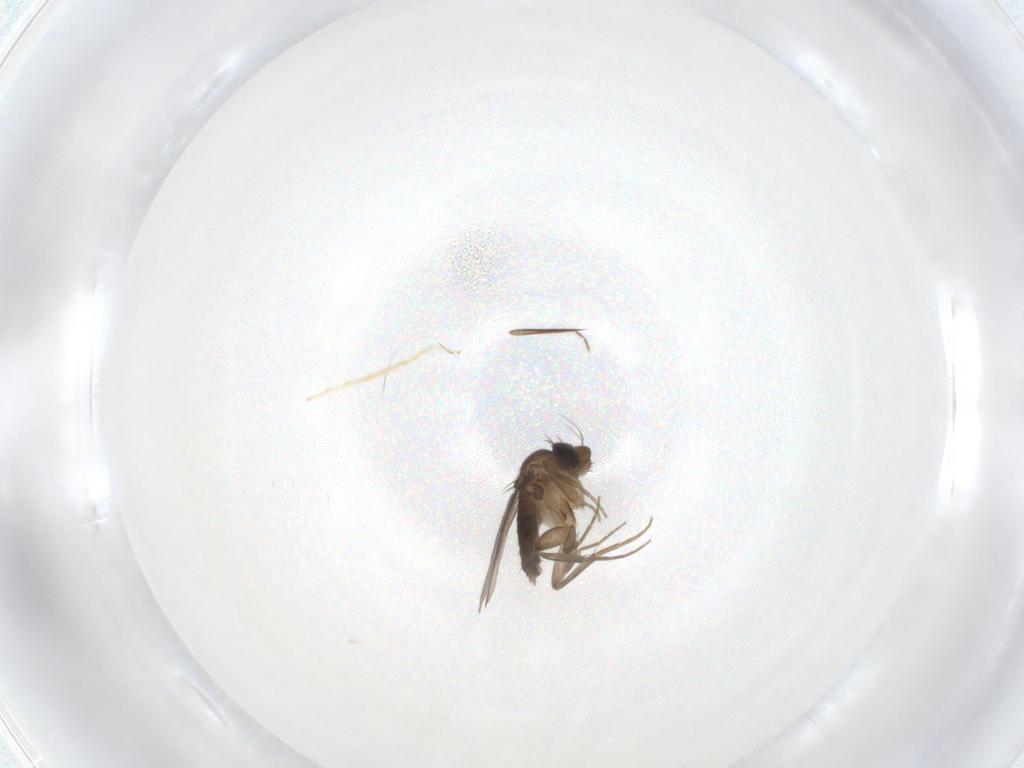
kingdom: Animalia
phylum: Arthropoda
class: Insecta
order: Diptera
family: Phoridae
